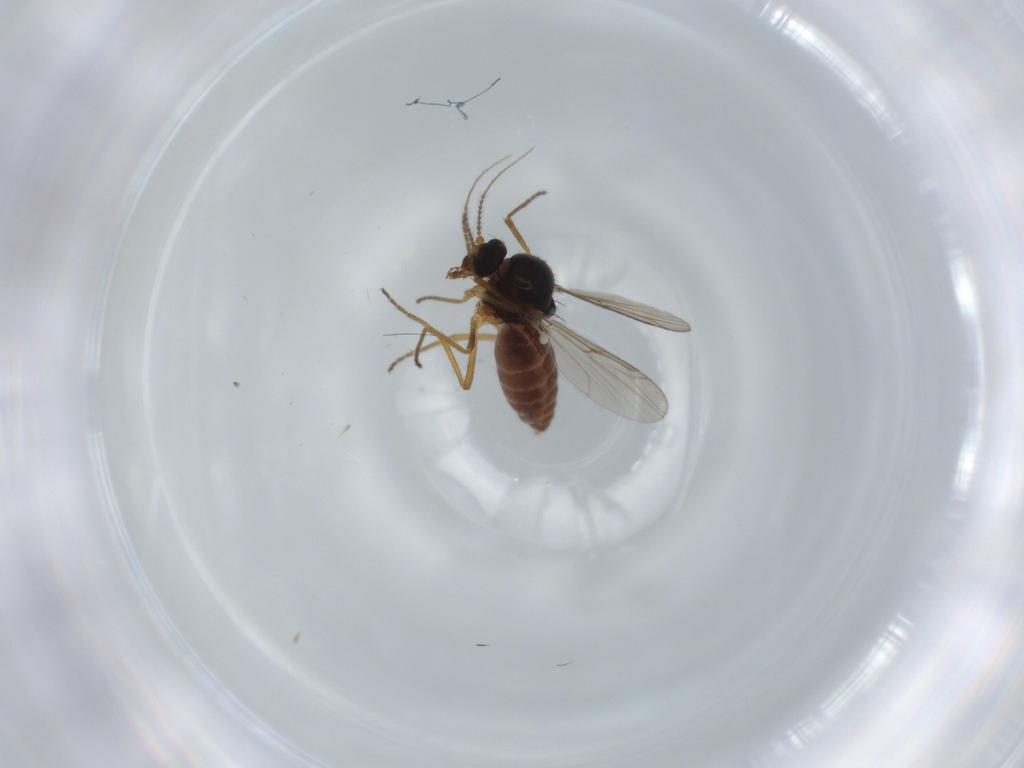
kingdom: Animalia
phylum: Arthropoda
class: Insecta
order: Diptera
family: Ceratopogonidae
